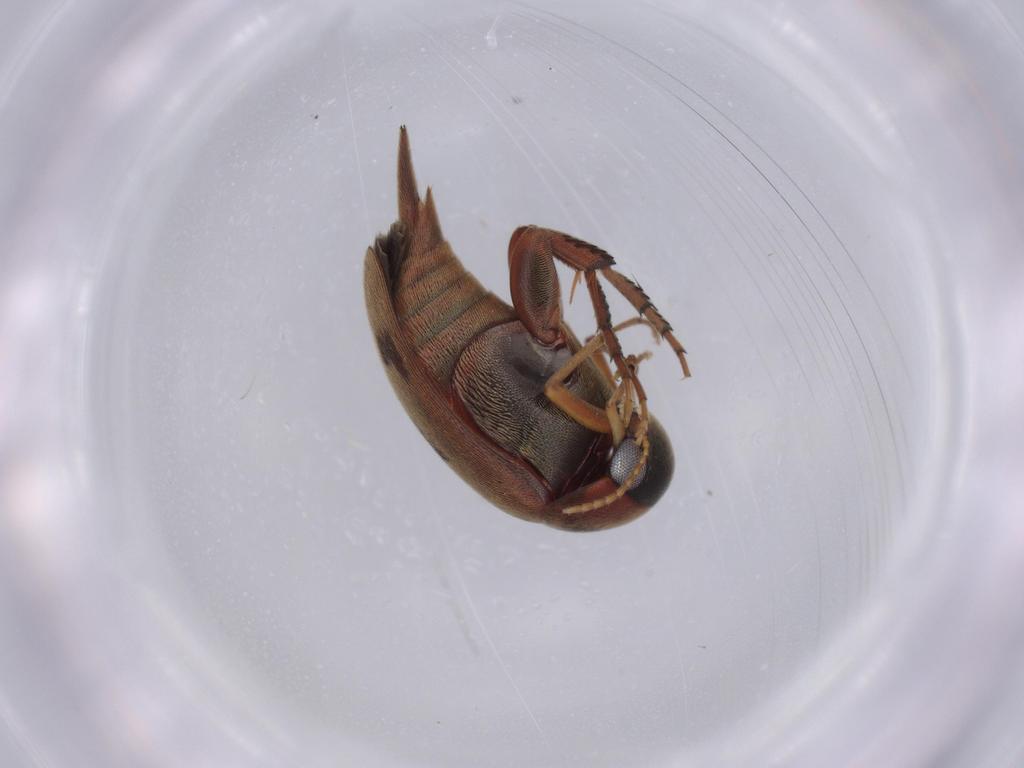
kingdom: Animalia
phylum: Arthropoda
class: Insecta
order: Coleoptera
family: Mordellidae
